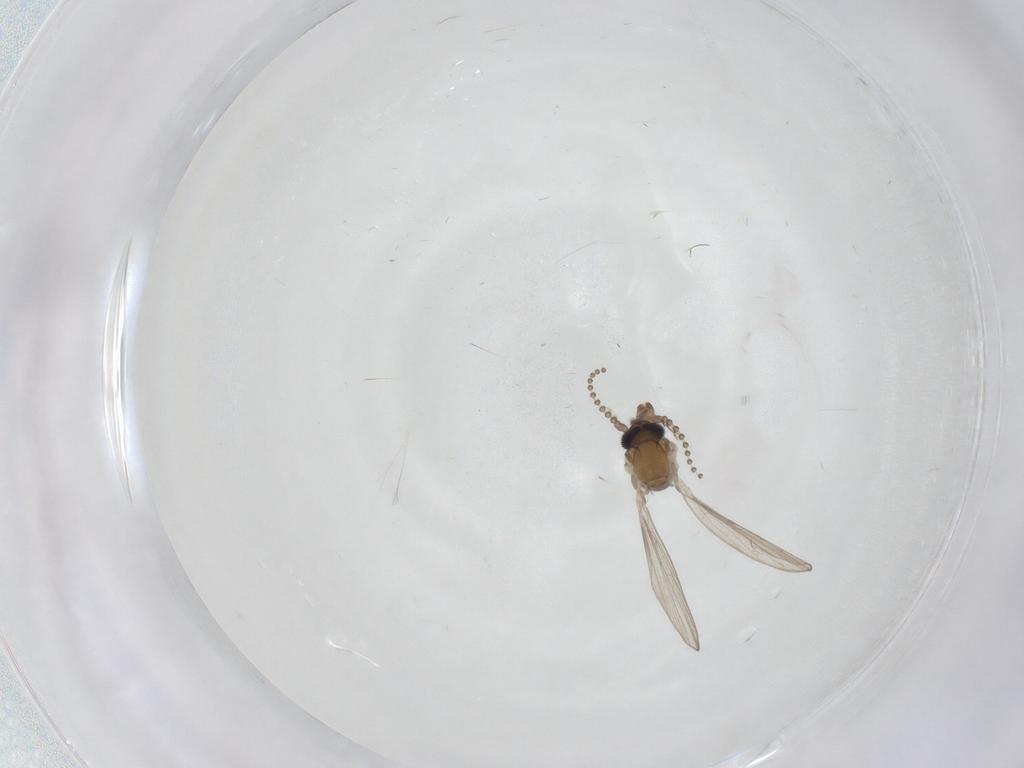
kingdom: Animalia
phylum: Arthropoda
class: Insecta
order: Diptera
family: Psychodidae
